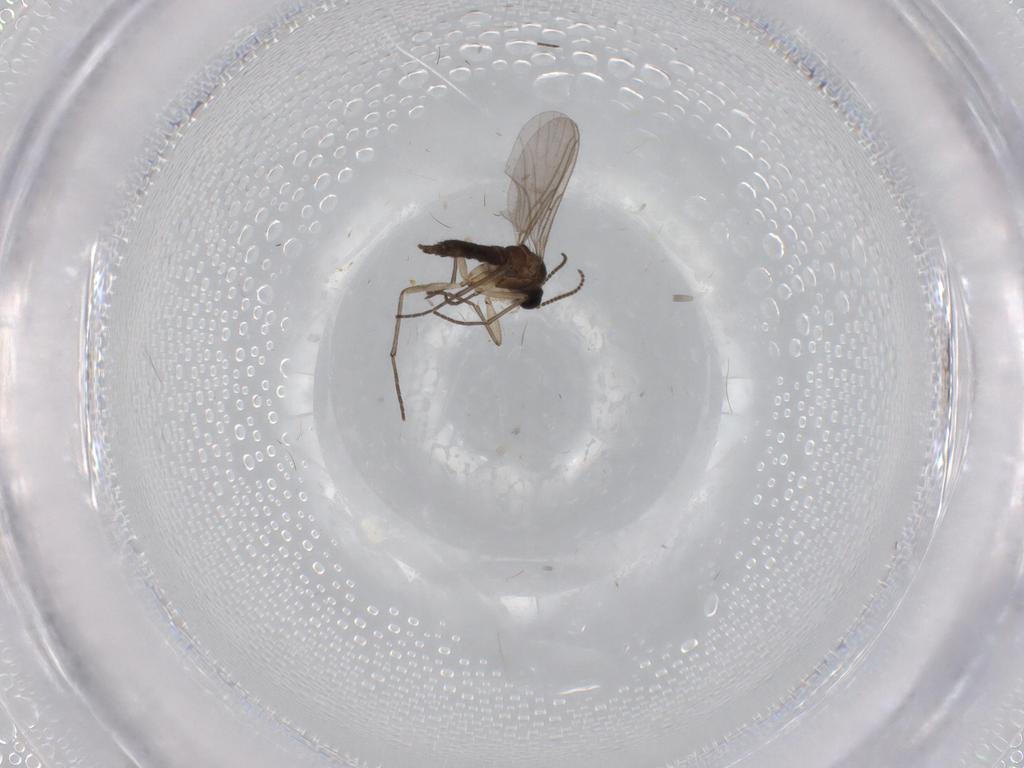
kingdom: Animalia
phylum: Arthropoda
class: Insecta
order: Diptera
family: Sciaridae
